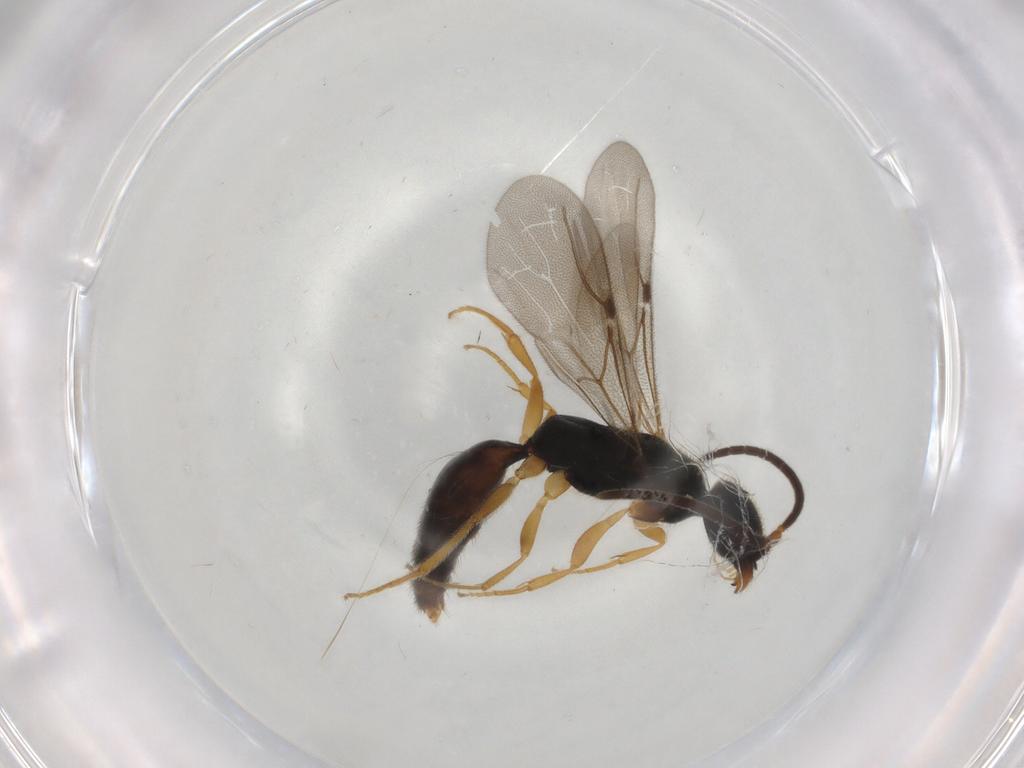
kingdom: Animalia
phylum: Arthropoda
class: Insecta
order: Hymenoptera
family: Bethylidae
